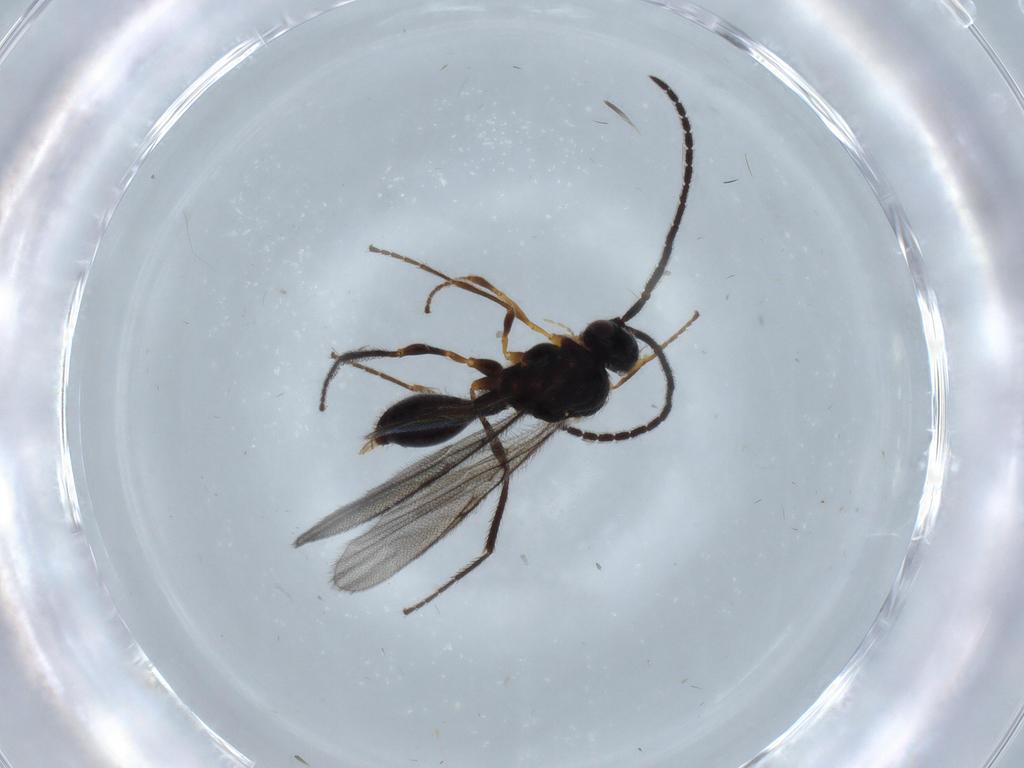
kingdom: Animalia
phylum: Arthropoda
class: Insecta
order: Hymenoptera
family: Diapriidae
